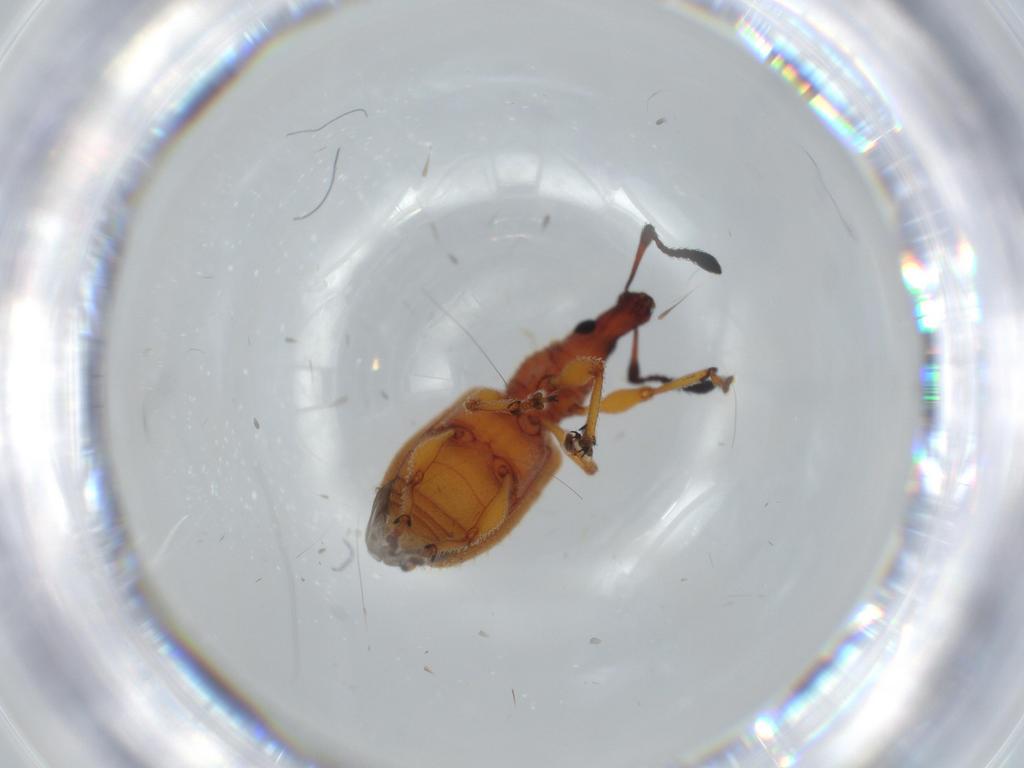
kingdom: Animalia
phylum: Arthropoda
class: Insecta
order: Coleoptera
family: Curculionidae
